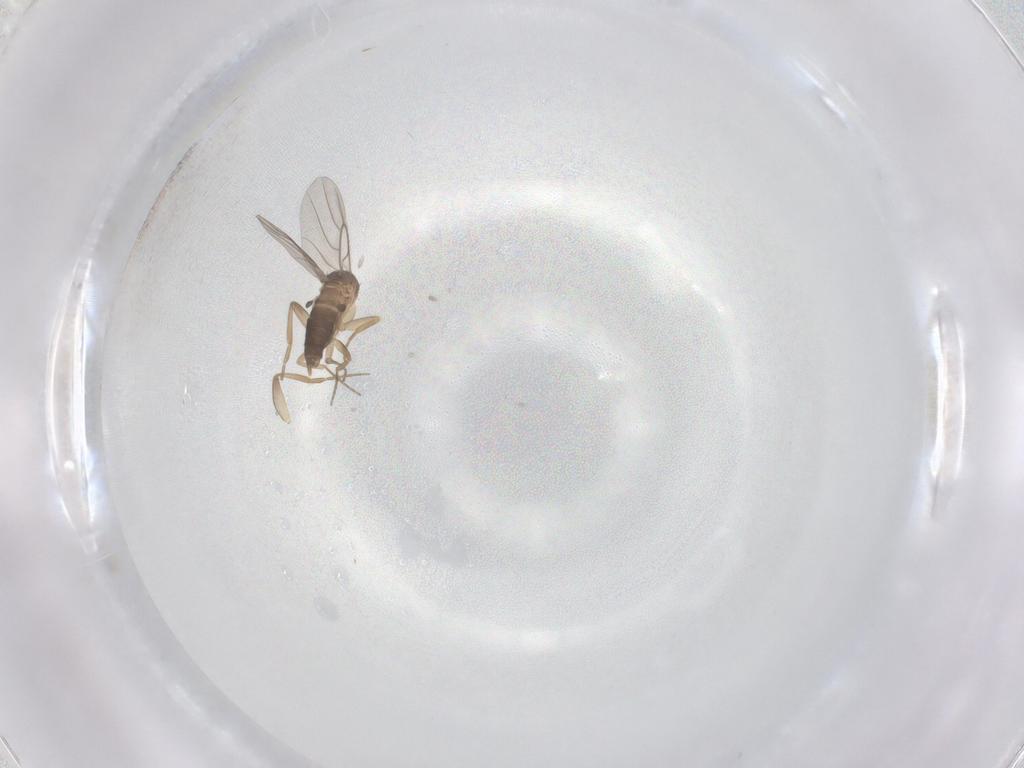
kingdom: Animalia
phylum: Arthropoda
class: Insecta
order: Diptera
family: Phoridae
